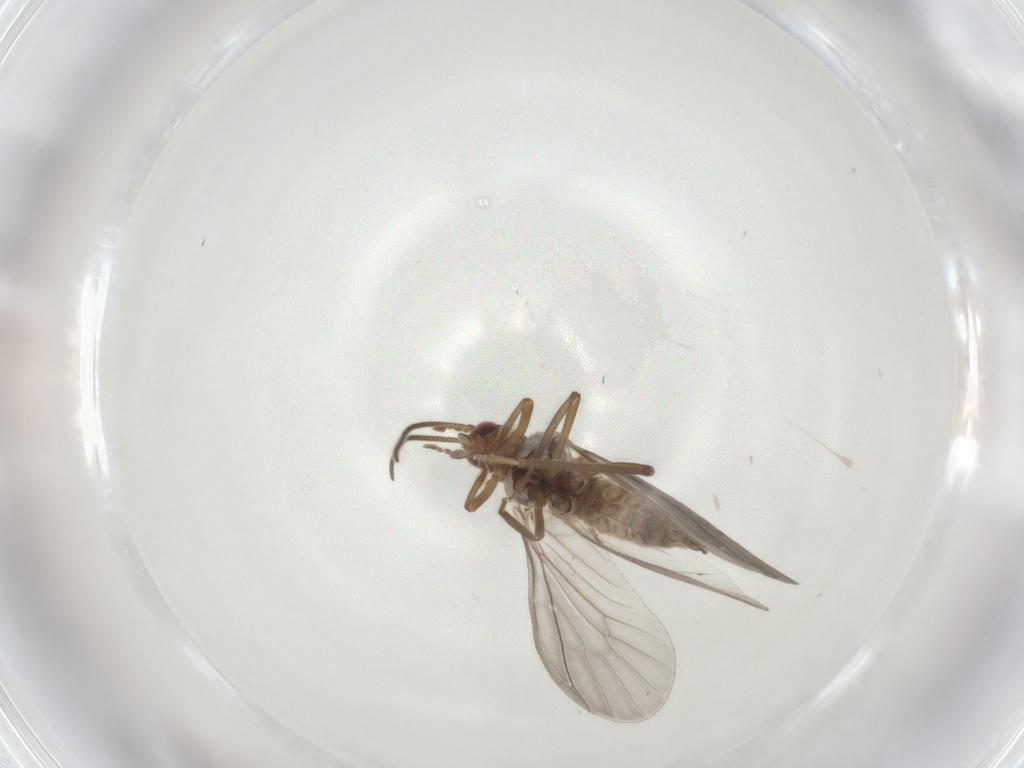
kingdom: Animalia
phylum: Arthropoda
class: Insecta
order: Neuroptera
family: Coniopterygidae
